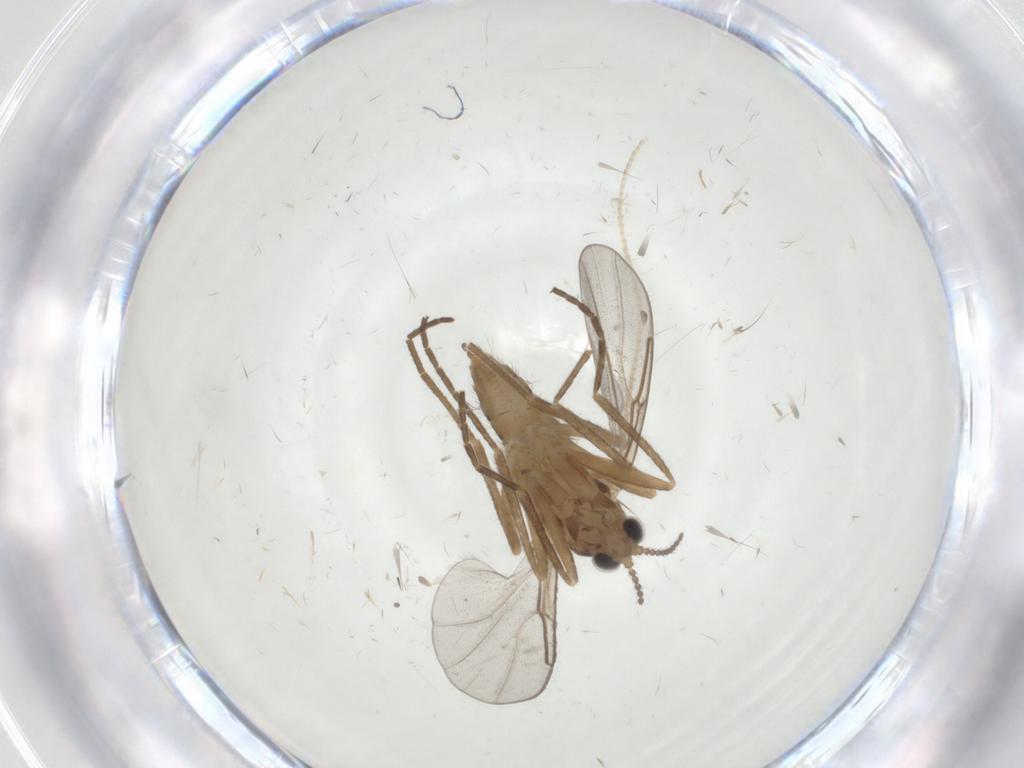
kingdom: Animalia
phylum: Arthropoda
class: Insecta
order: Diptera
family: Cecidomyiidae
